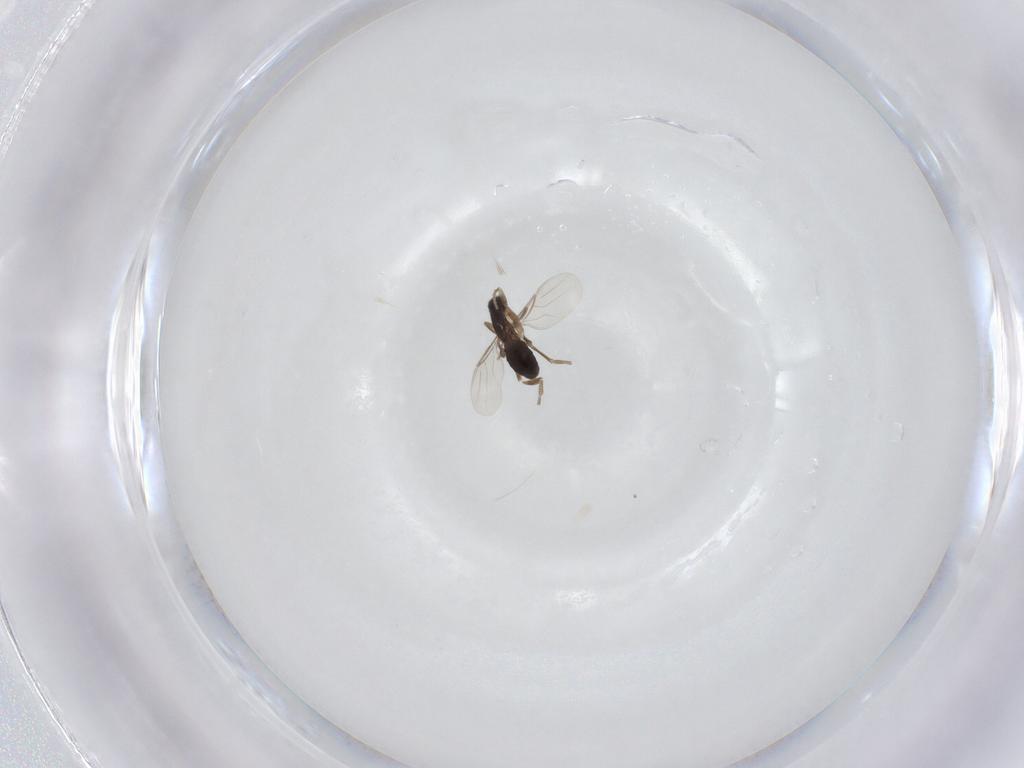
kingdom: Animalia
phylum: Arthropoda
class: Insecta
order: Diptera
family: Phoridae
